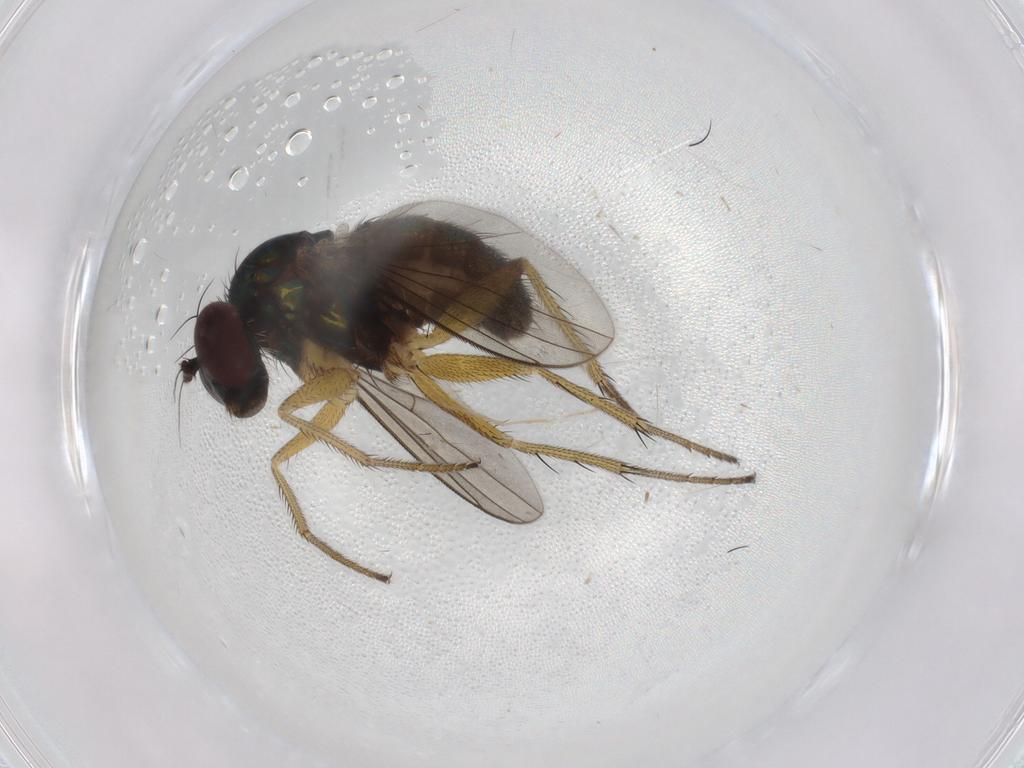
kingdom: Animalia
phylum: Arthropoda
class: Insecta
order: Diptera
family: Dolichopodidae
